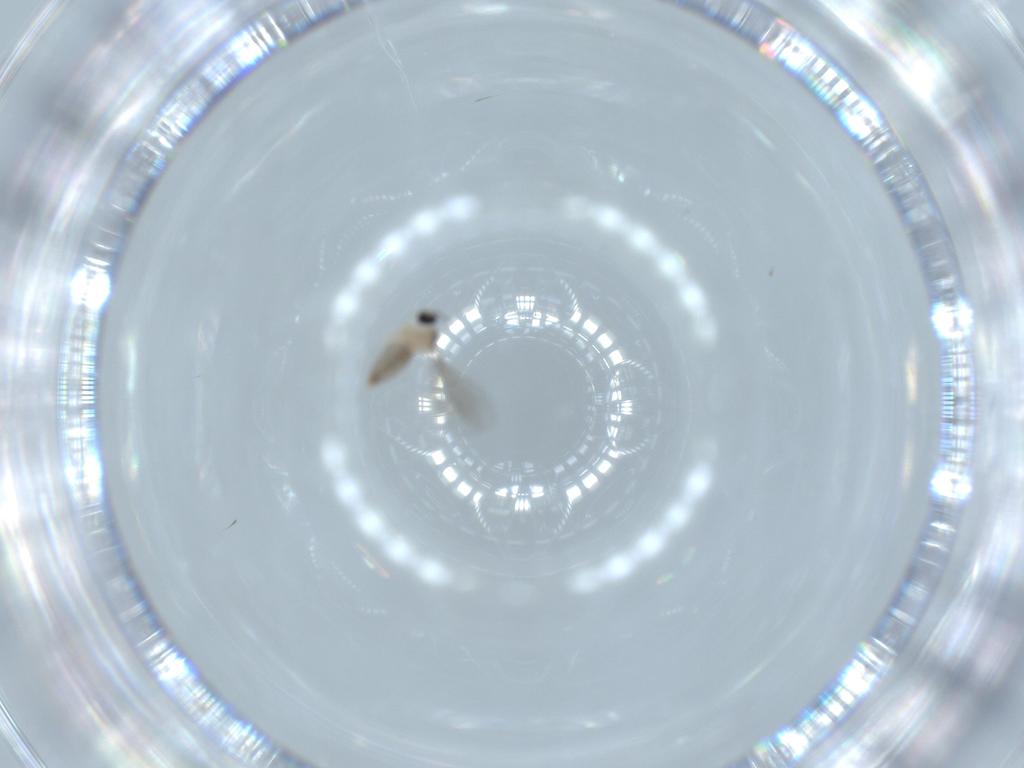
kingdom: Animalia
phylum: Arthropoda
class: Insecta
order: Diptera
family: Cecidomyiidae
